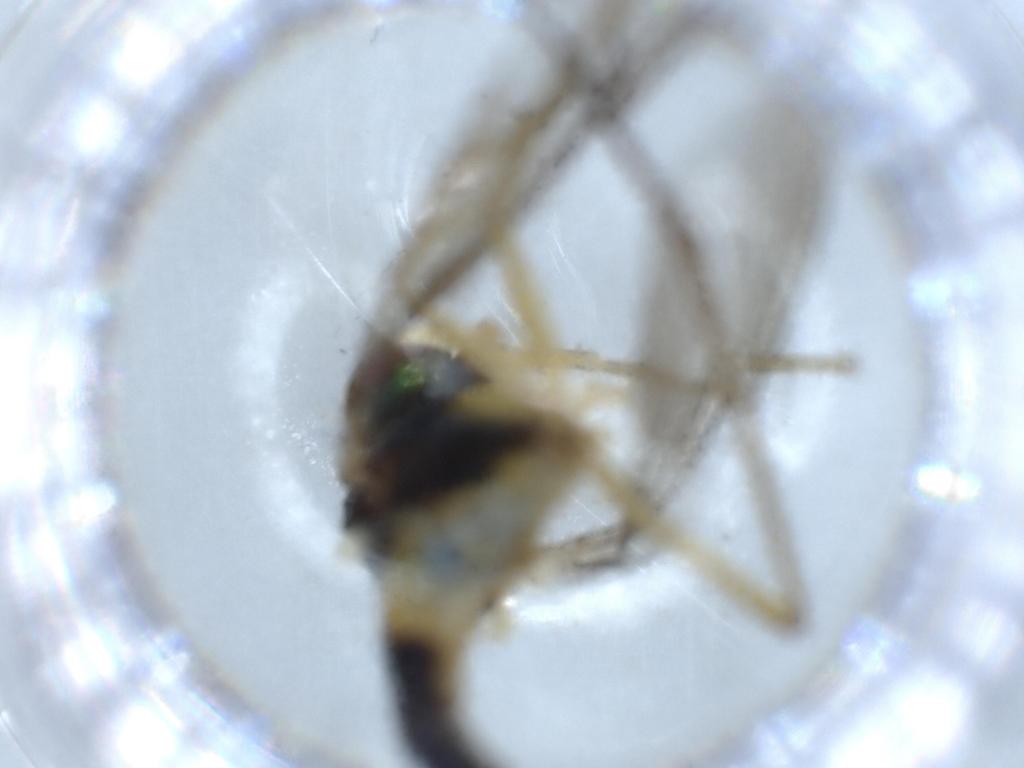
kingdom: Animalia
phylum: Arthropoda
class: Insecta
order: Diptera
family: Dolichopodidae
